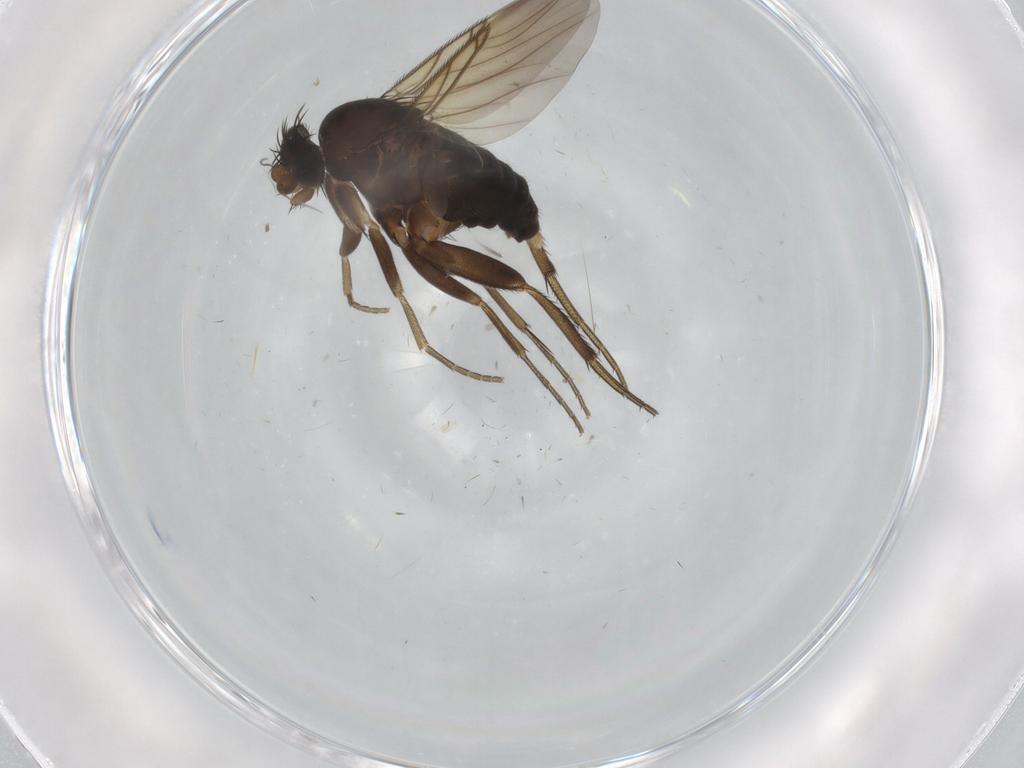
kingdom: Animalia
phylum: Arthropoda
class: Insecta
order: Diptera
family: Phoridae
